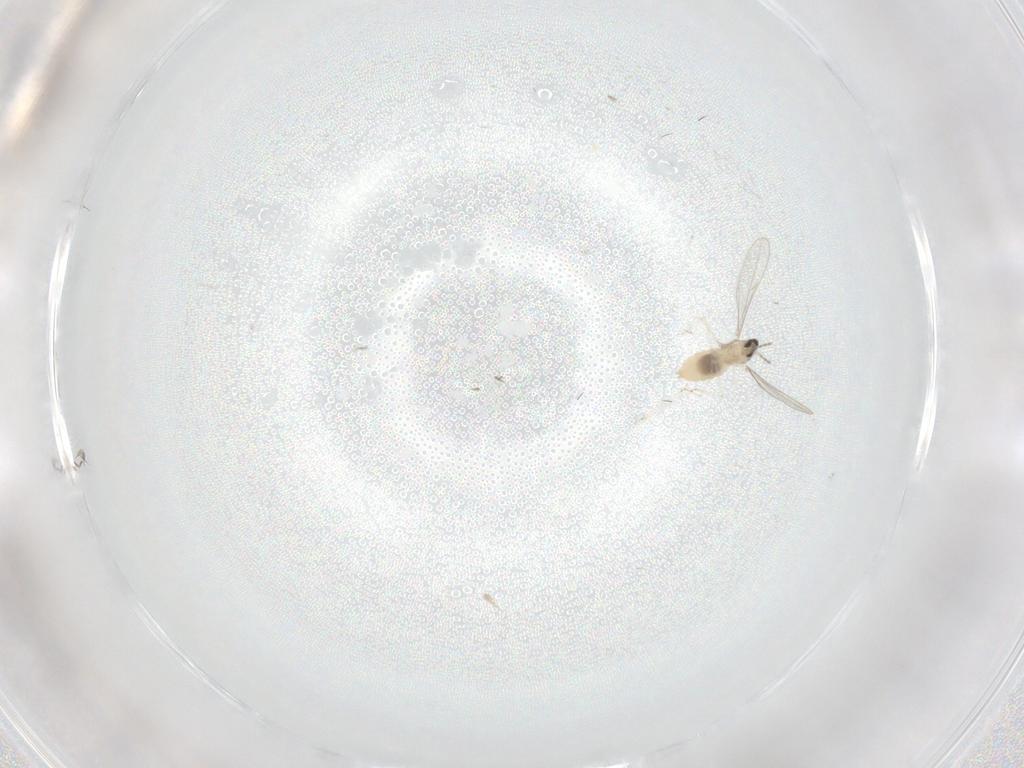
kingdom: Animalia
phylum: Arthropoda
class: Insecta
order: Diptera
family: Cecidomyiidae
